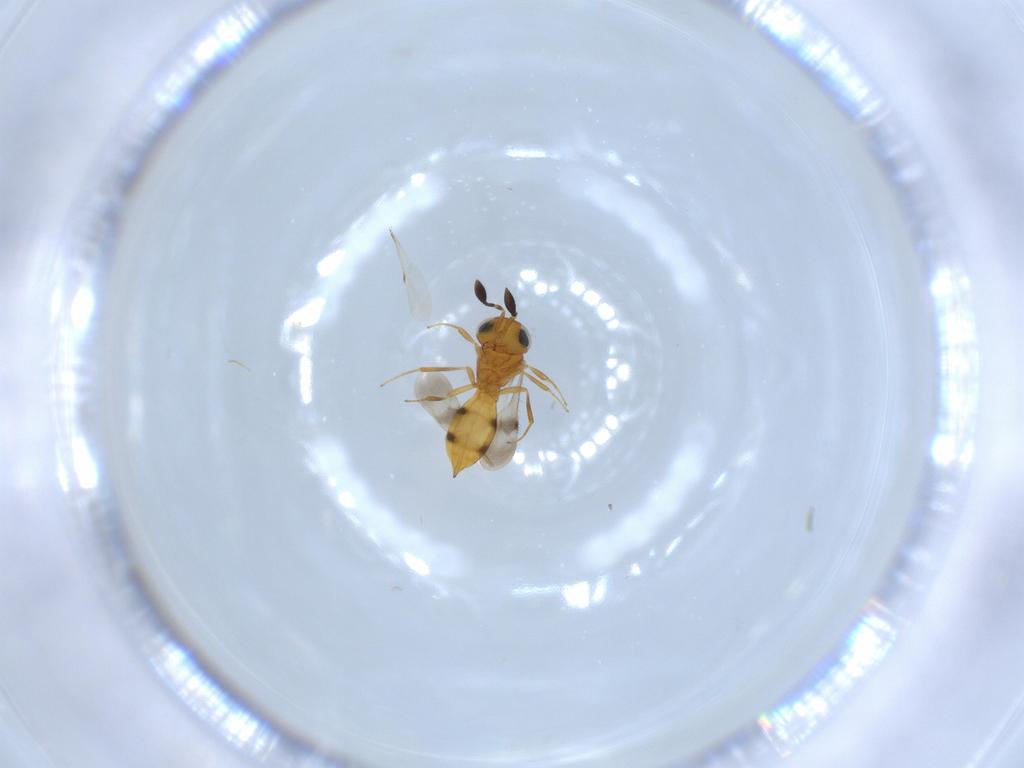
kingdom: Animalia
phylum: Arthropoda
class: Insecta
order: Hymenoptera
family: Scelionidae
